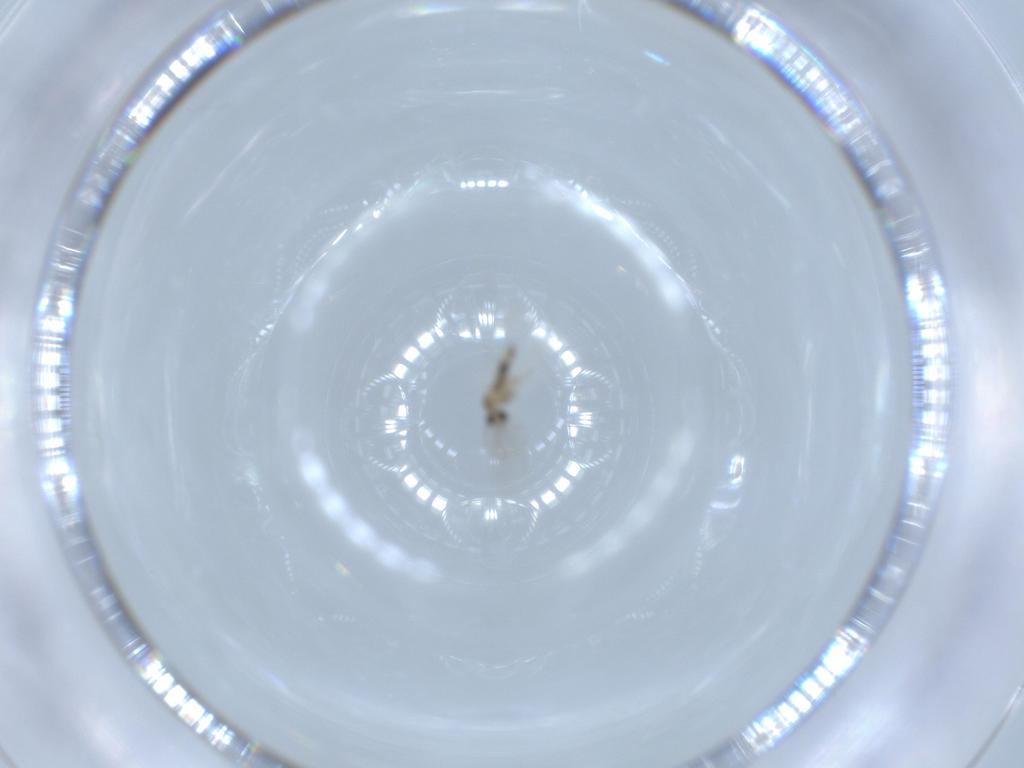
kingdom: Animalia
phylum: Arthropoda
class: Insecta
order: Diptera
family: Cecidomyiidae
